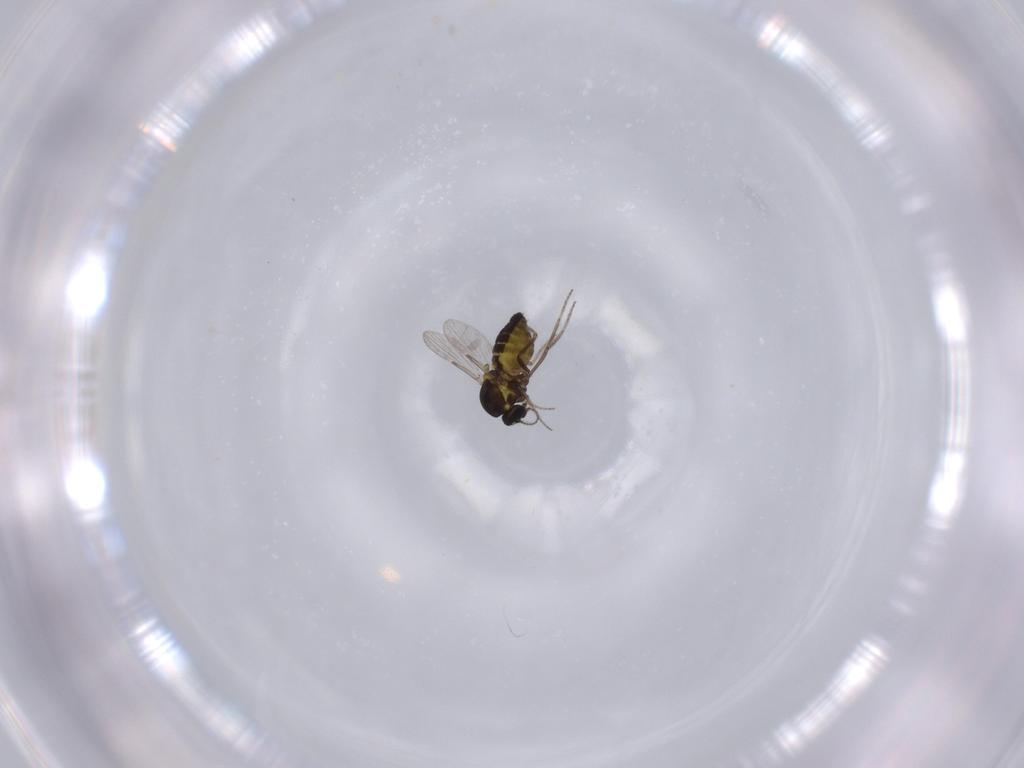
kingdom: Animalia
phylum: Arthropoda
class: Insecta
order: Diptera
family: Ceratopogonidae
